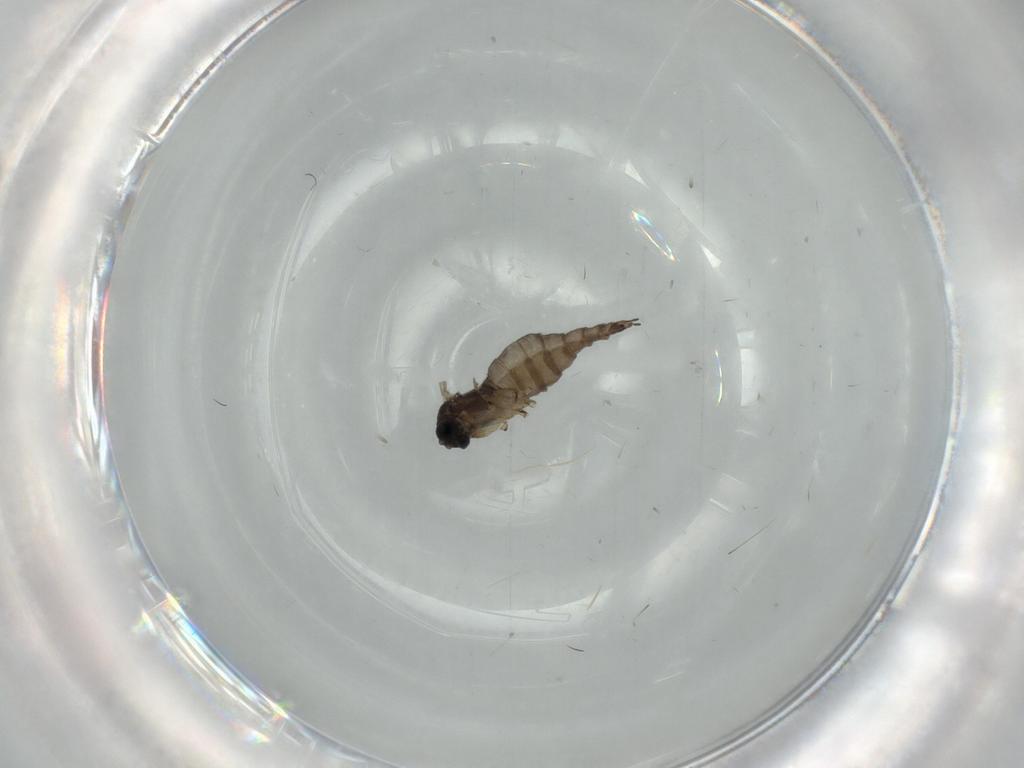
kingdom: Animalia
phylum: Arthropoda
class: Insecta
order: Diptera
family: Sciaridae
